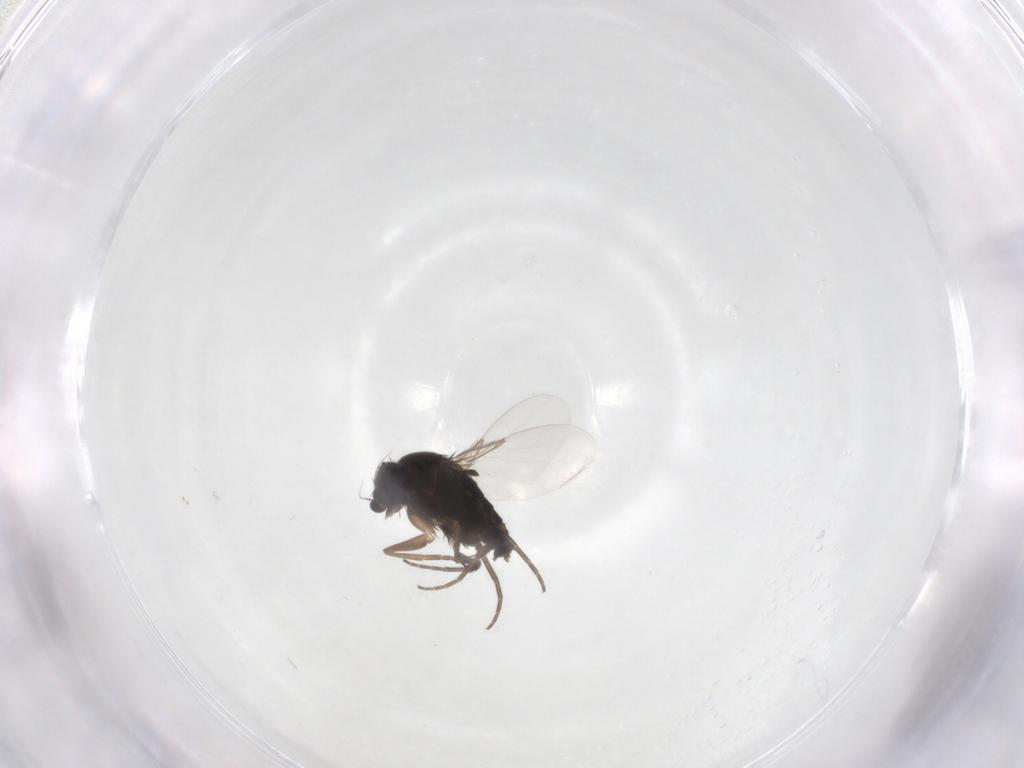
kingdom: Animalia
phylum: Arthropoda
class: Insecta
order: Diptera
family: Phoridae
